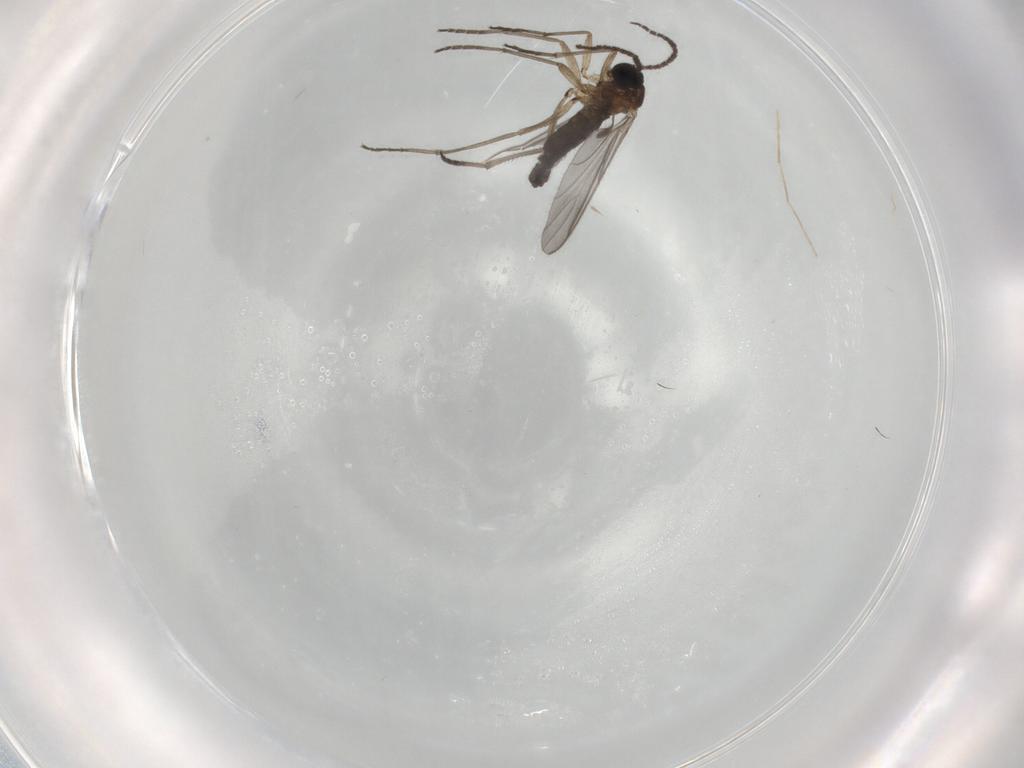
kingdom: Animalia
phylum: Arthropoda
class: Insecta
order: Diptera
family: Sciaridae
